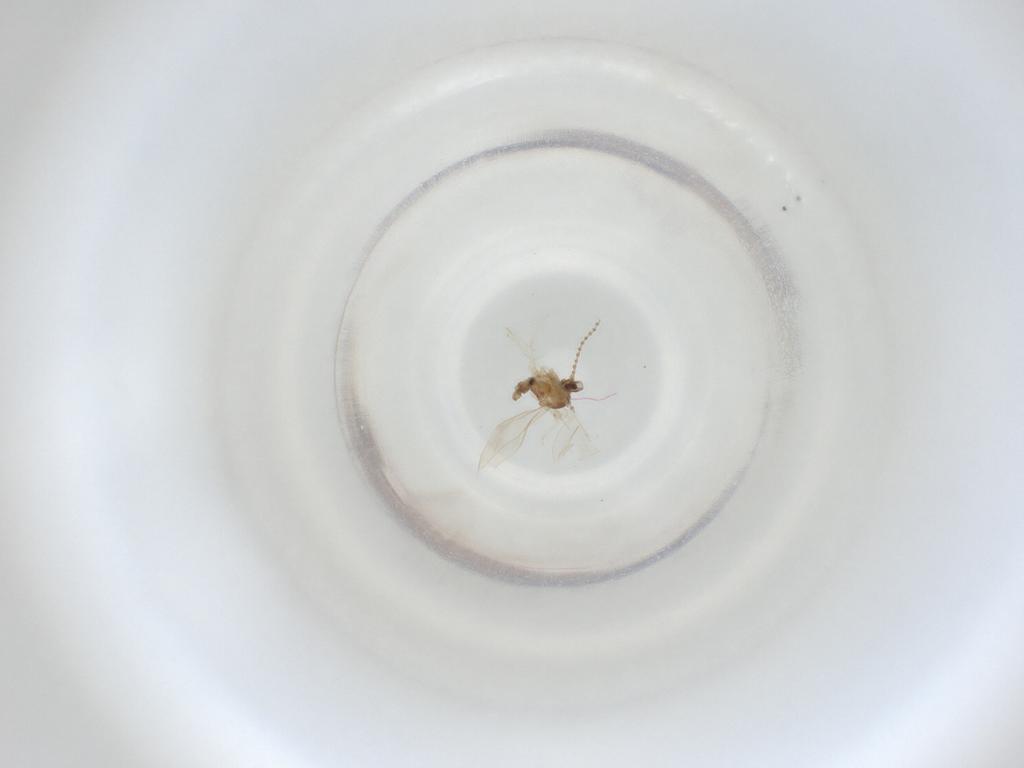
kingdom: Animalia
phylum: Arthropoda
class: Insecta
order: Diptera
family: Cecidomyiidae
